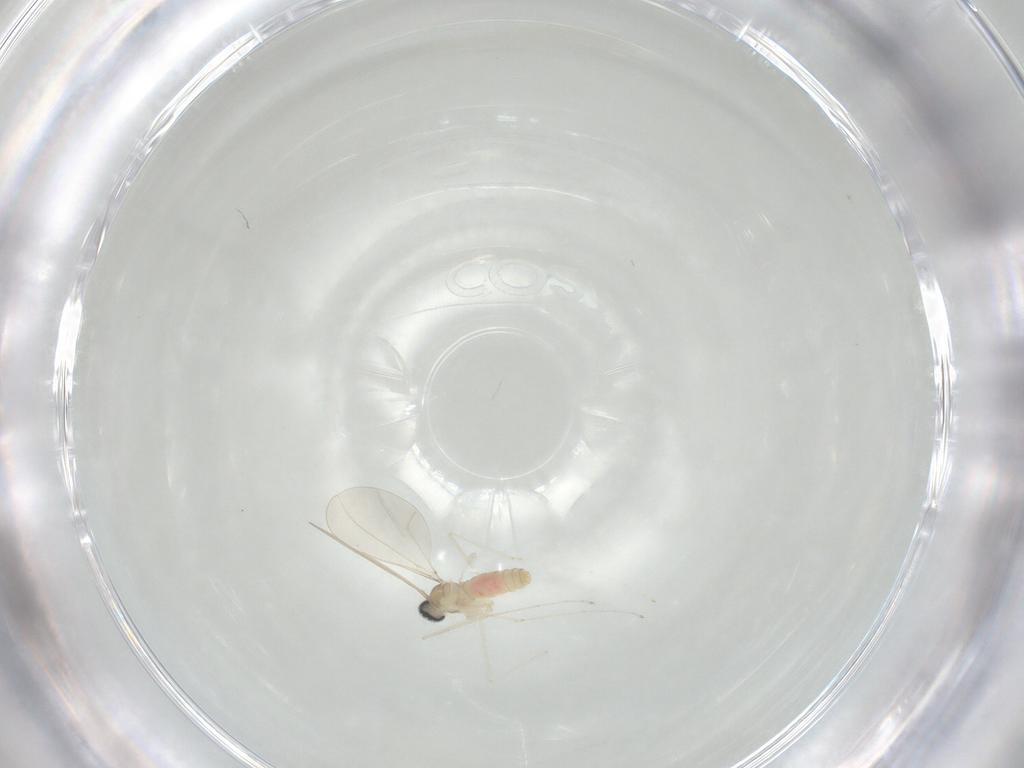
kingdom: Animalia
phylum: Arthropoda
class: Insecta
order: Diptera
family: Cecidomyiidae
